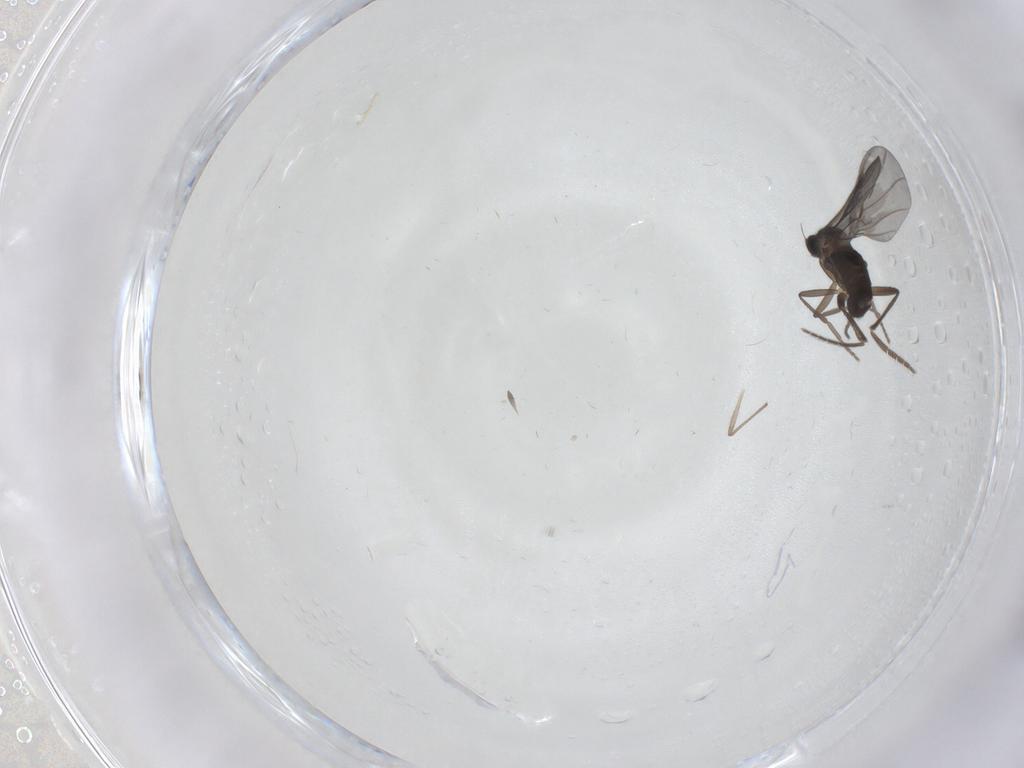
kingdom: Animalia
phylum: Arthropoda
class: Insecta
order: Diptera
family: Phoridae
